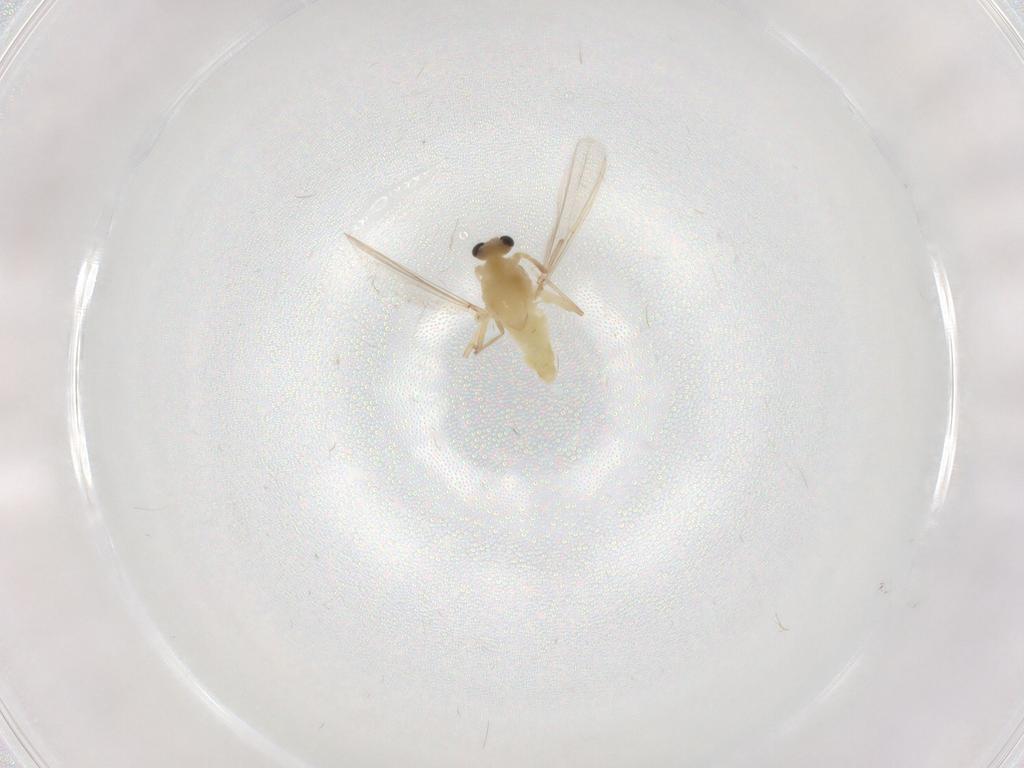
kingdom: Animalia
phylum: Arthropoda
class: Insecta
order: Diptera
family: Chironomidae
